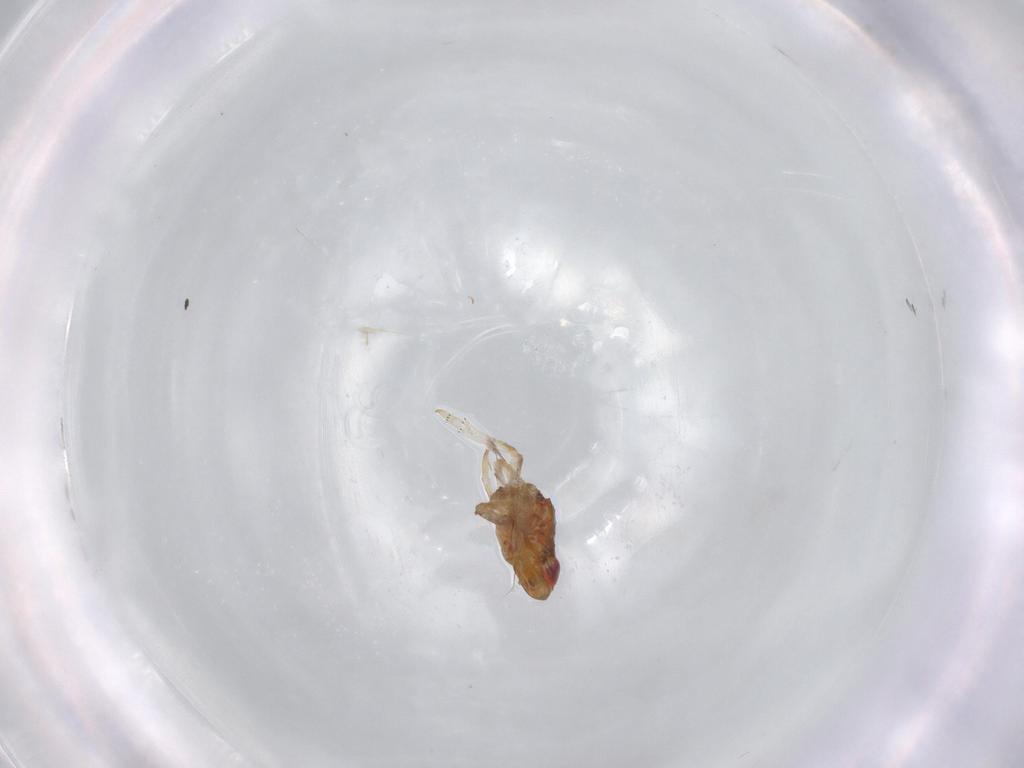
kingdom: Animalia
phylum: Arthropoda
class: Insecta
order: Hemiptera
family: Issidae
